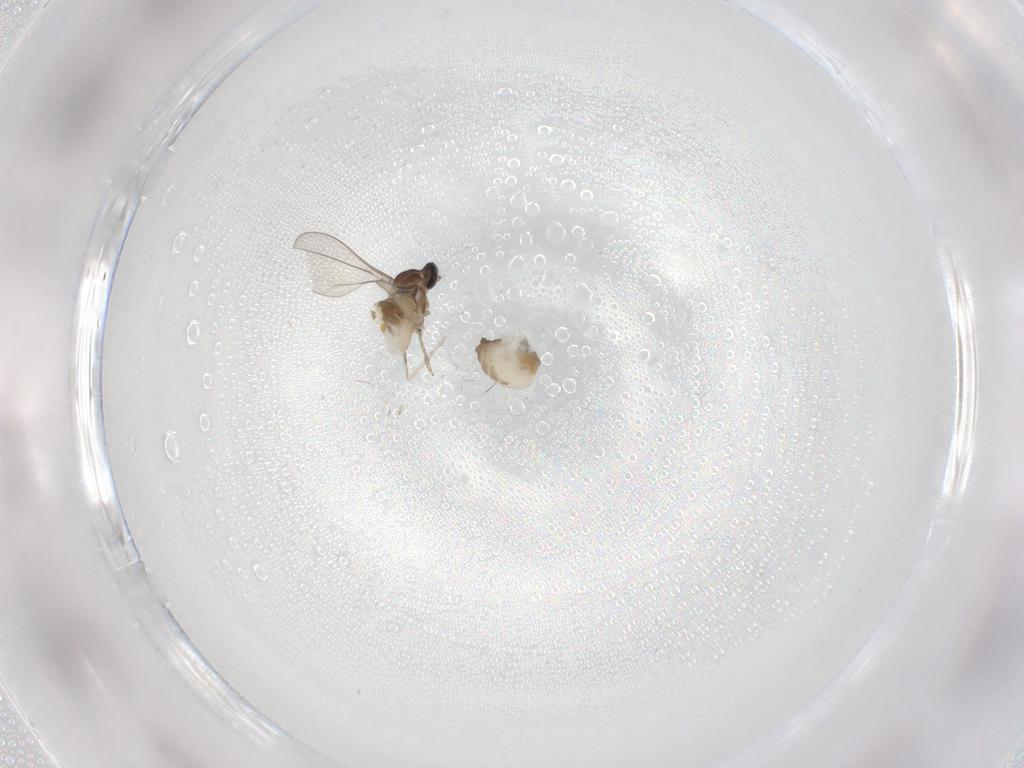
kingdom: Animalia
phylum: Arthropoda
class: Insecta
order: Diptera
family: Cecidomyiidae
